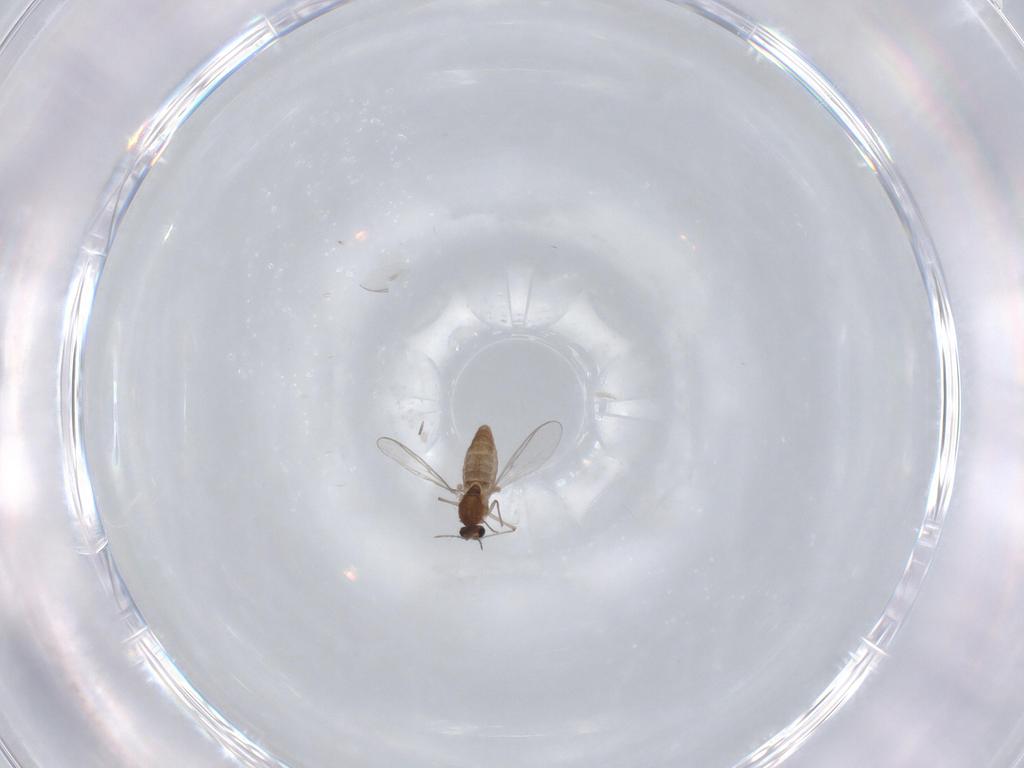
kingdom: Animalia
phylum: Arthropoda
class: Insecta
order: Diptera
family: Chironomidae
